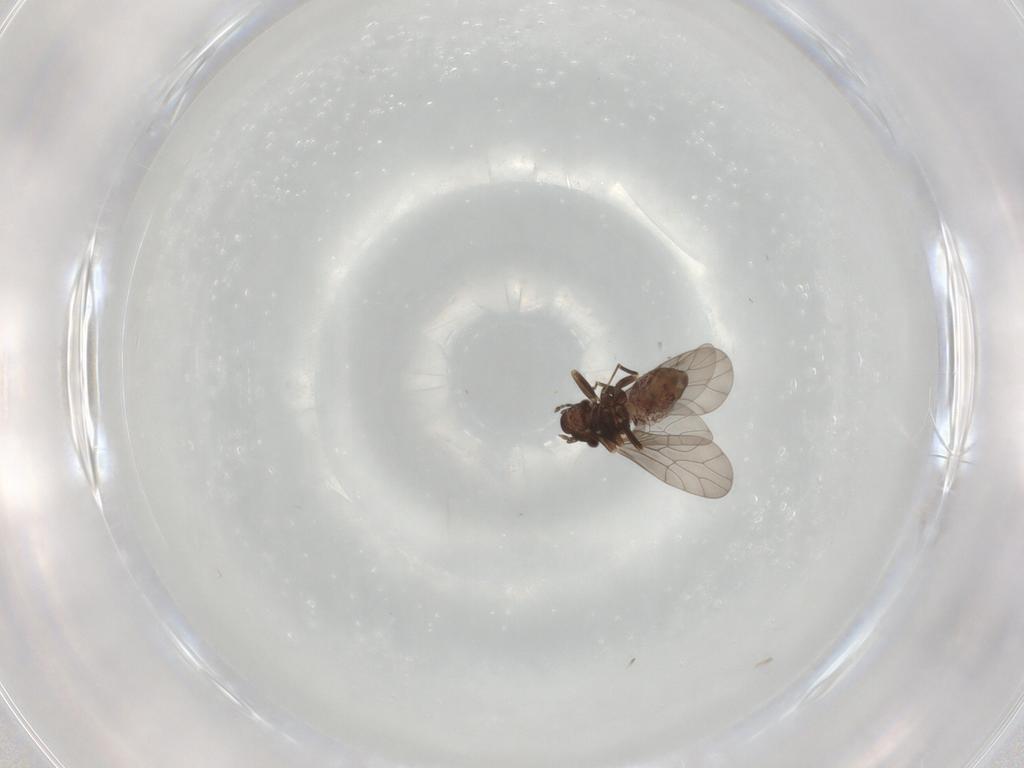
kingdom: Animalia
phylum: Arthropoda
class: Insecta
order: Psocodea
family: Lepidopsocidae
